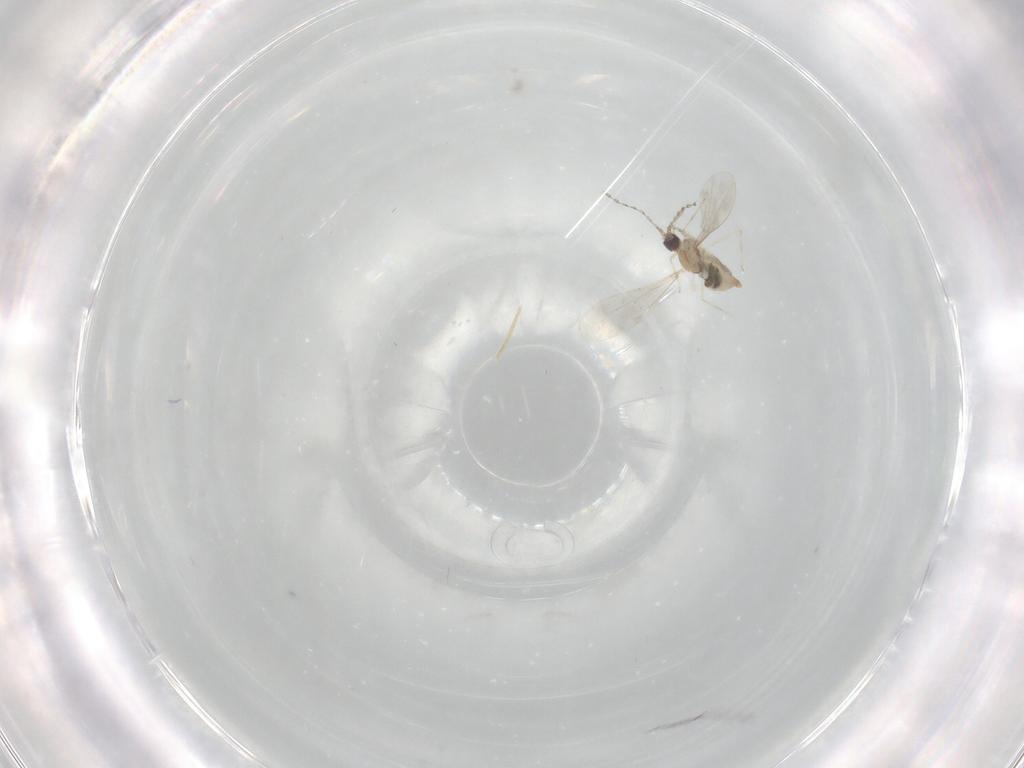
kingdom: Animalia
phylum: Arthropoda
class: Insecta
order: Diptera
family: Cecidomyiidae
